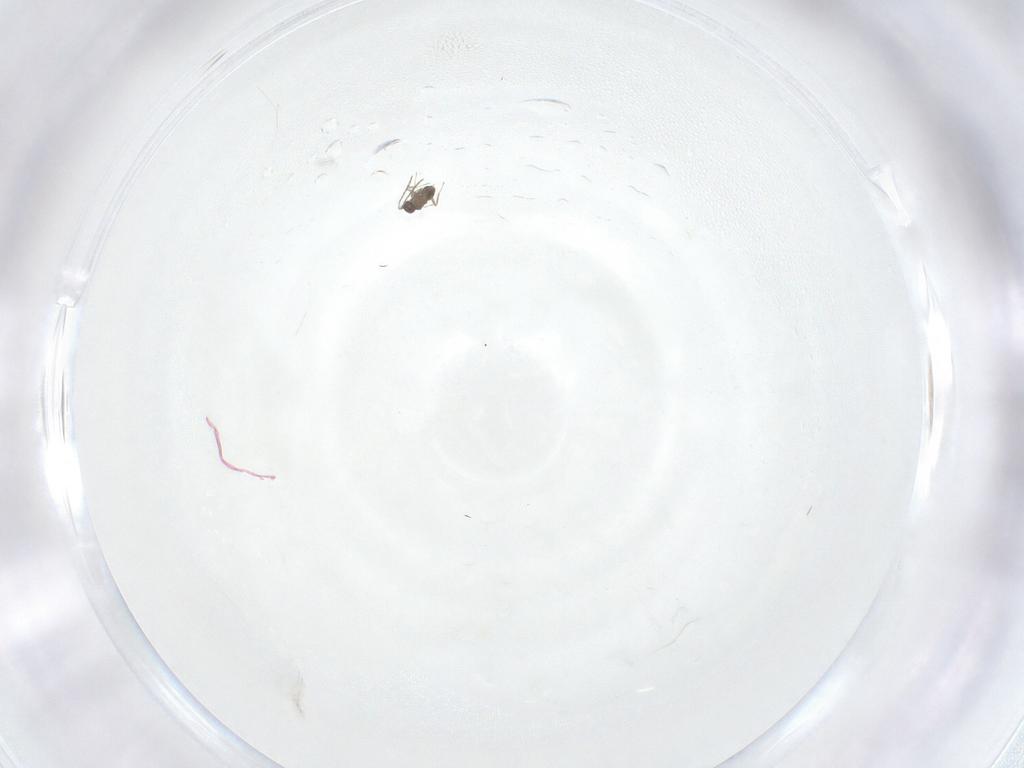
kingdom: Animalia
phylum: Arthropoda
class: Insecta
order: Hymenoptera
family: Mymaridae
